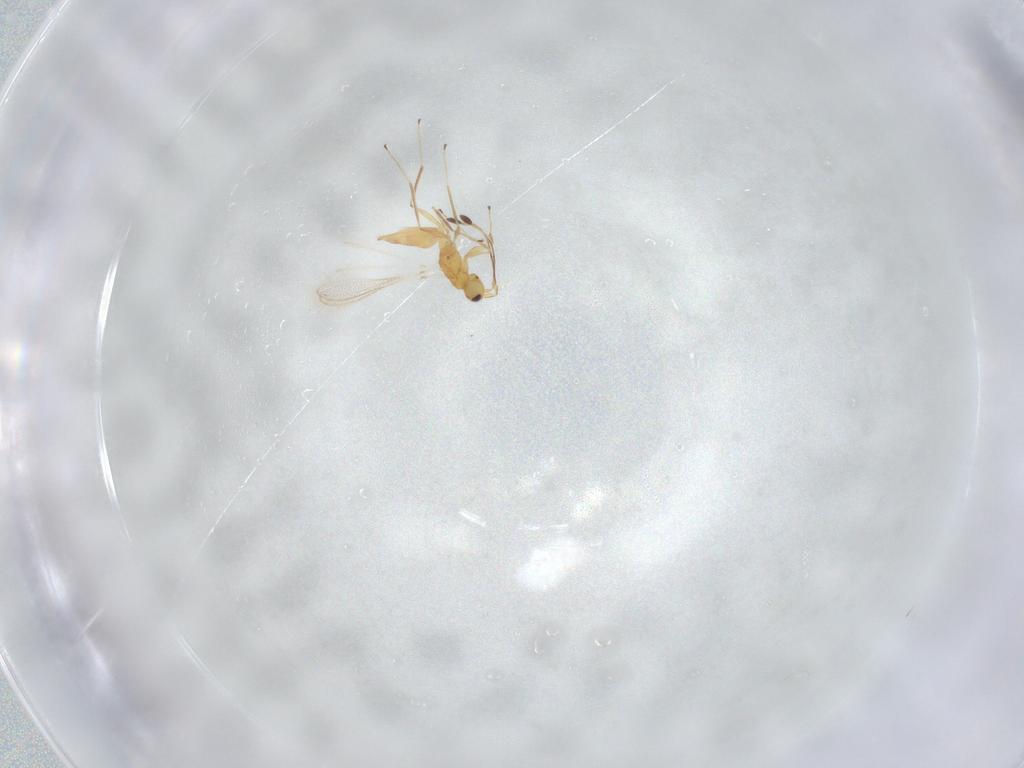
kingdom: Animalia
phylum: Arthropoda
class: Insecta
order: Hymenoptera
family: Mymaridae
